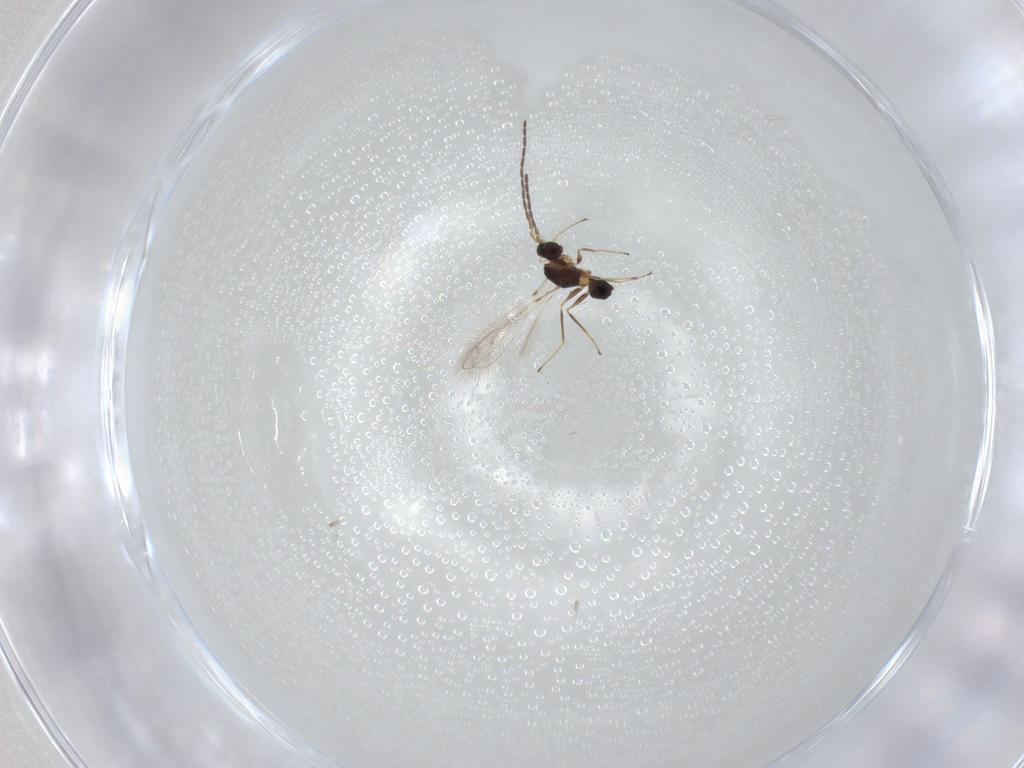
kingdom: Animalia
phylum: Arthropoda
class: Insecta
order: Hymenoptera
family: Mymaridae
